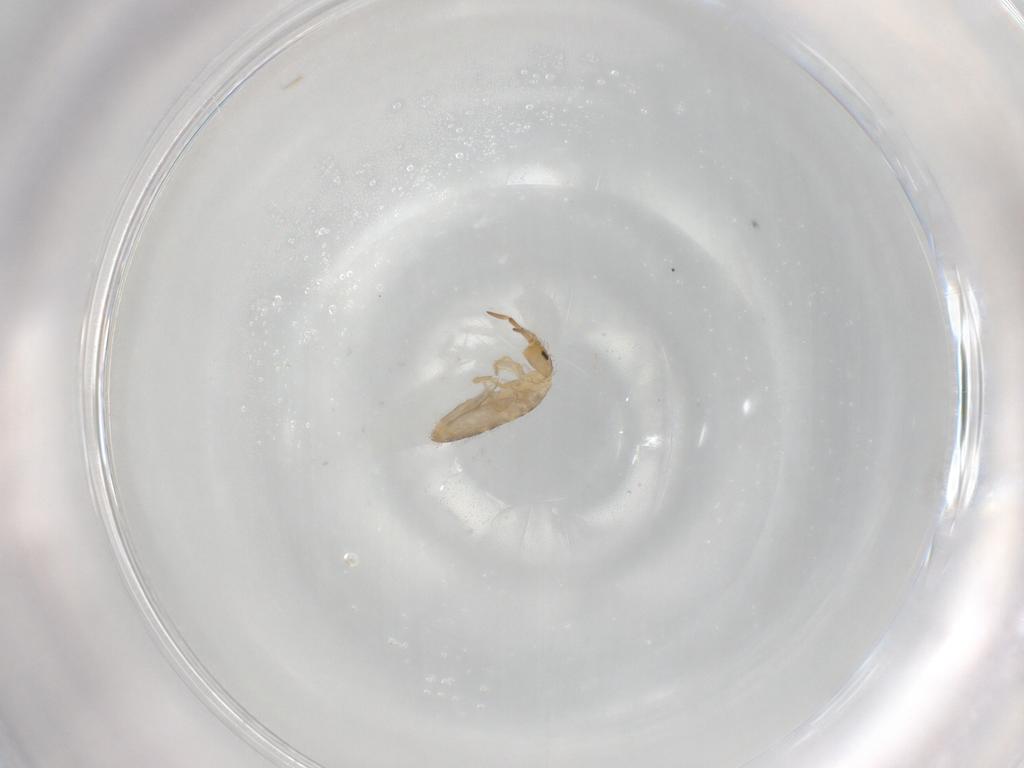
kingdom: Animalia
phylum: Arthropoda
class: Collembola
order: Entomobryomorpha
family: Entomobryidae
